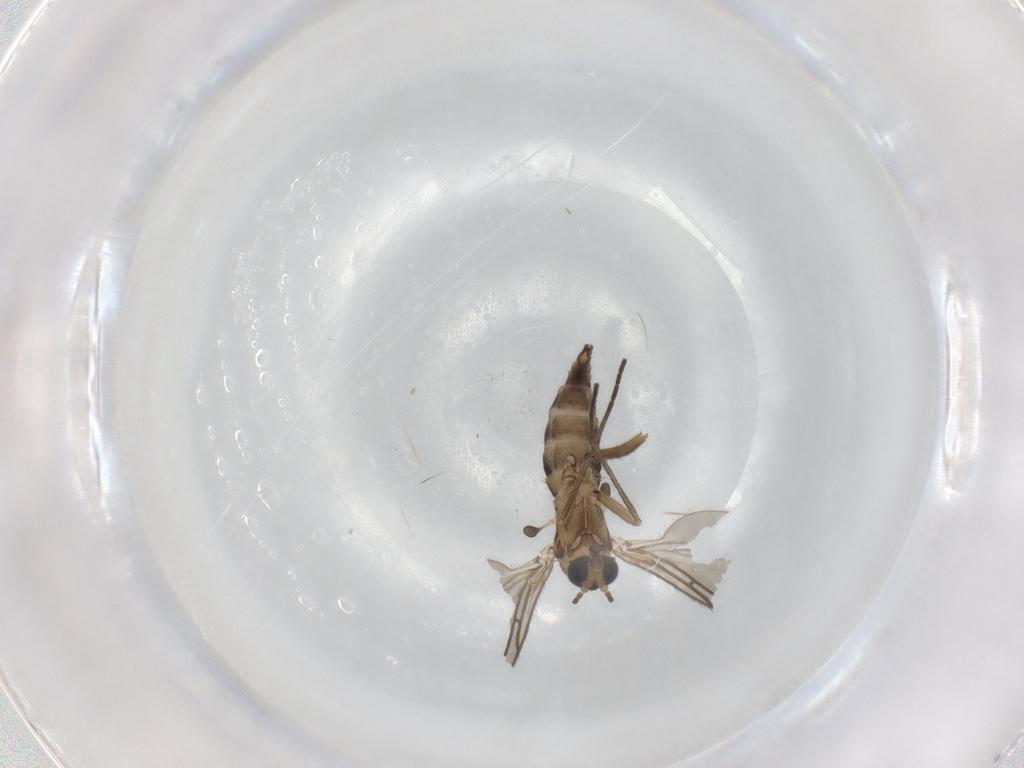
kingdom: Animalia
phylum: Arthropoda
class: Insecta
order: Diptera
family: Sciaridae
